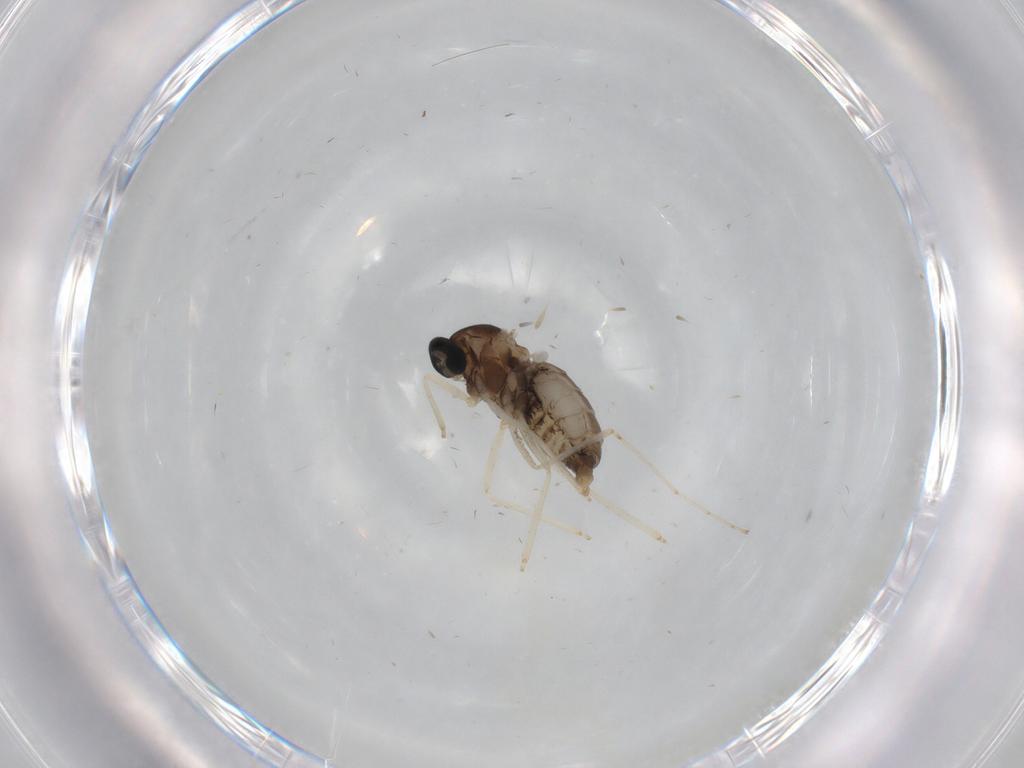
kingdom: Animalia
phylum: Arthropoda
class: Insecta
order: Diptera
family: Cecidomyiidae
